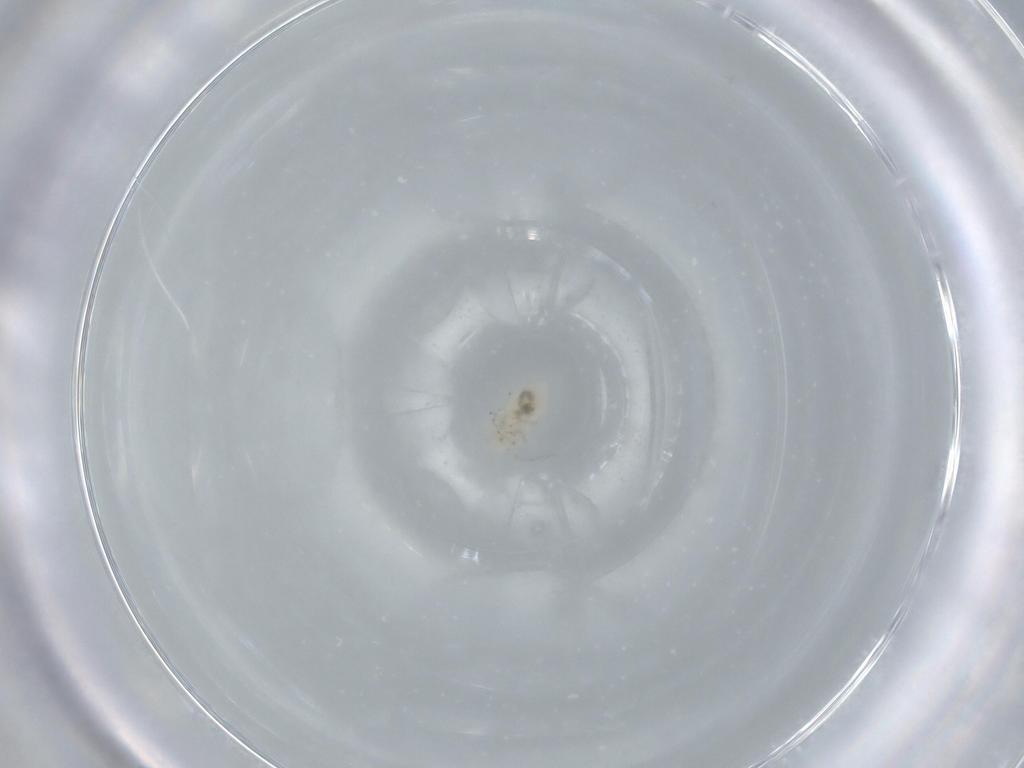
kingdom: Animalia
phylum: Arthropoda
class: Insecta
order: Psocodea
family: Caeciliusidae
